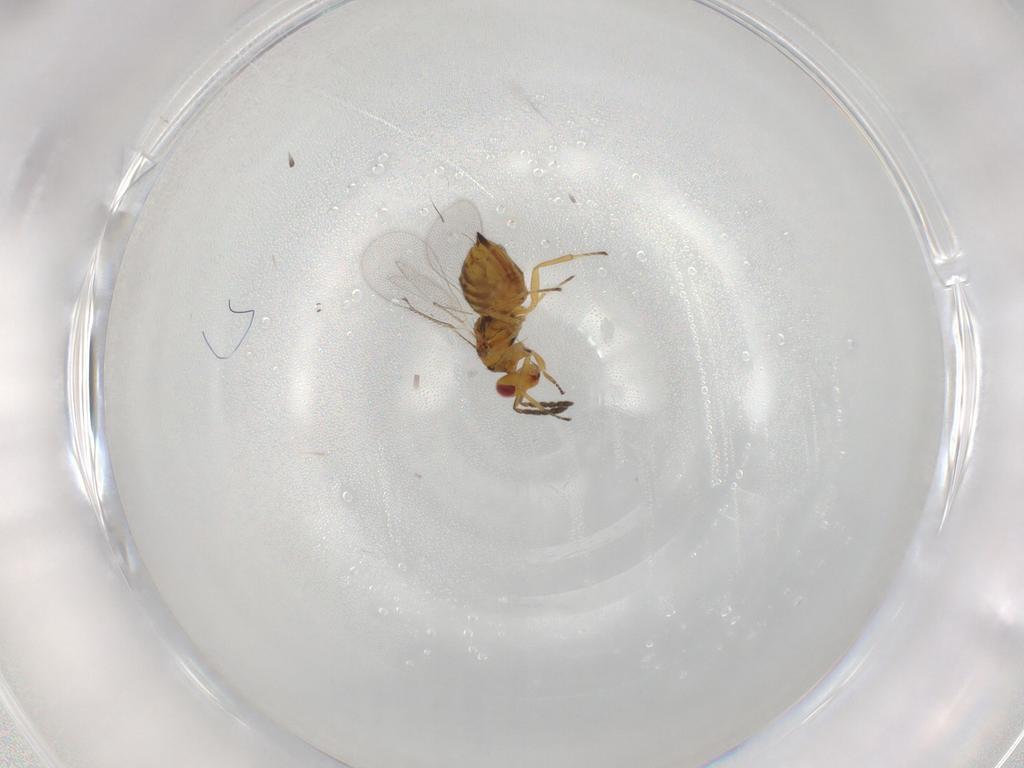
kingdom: Animalia
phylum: Arthropoda
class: Insecta
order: Hymenoptera
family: Eulophidae
